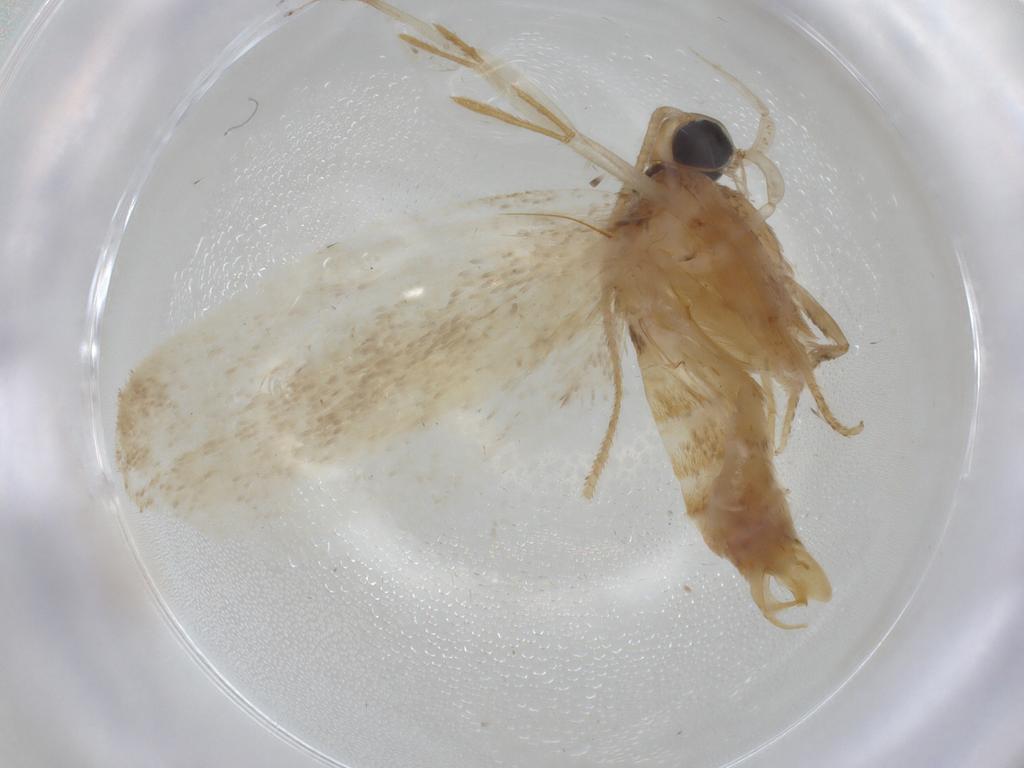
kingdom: Animalia
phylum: Arthropoda
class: Insecta
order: Lepidoptera
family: Depressariidae
